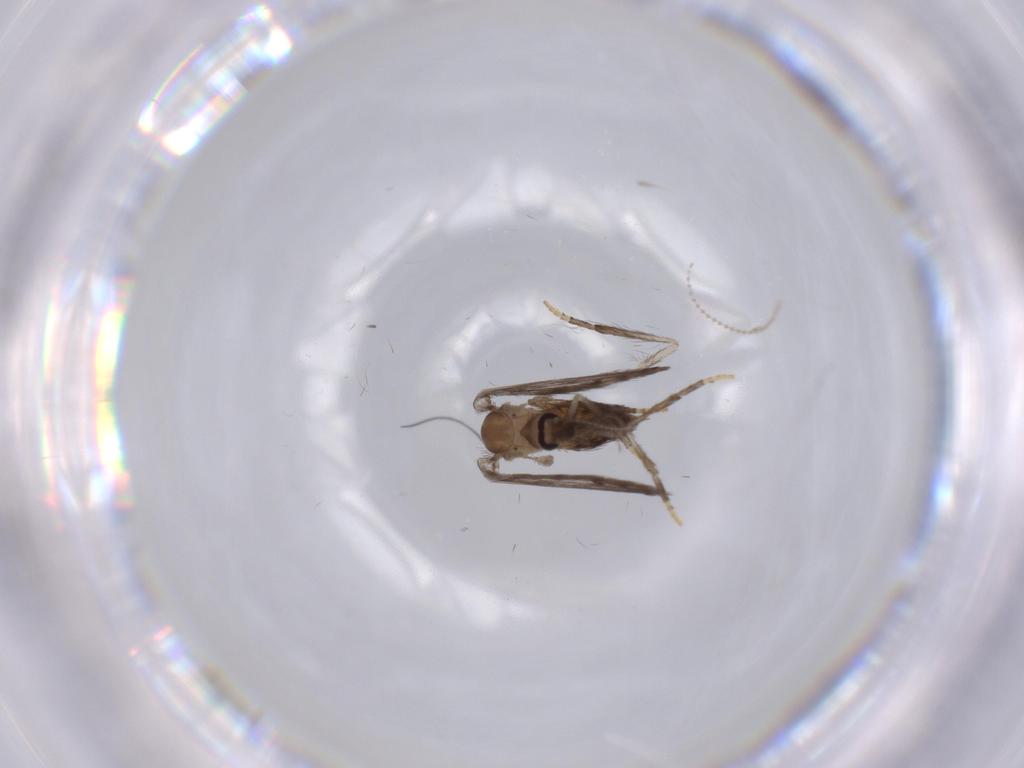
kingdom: Animalia
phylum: Arthropoda
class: Insecta
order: Diptera
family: Psychodidae
